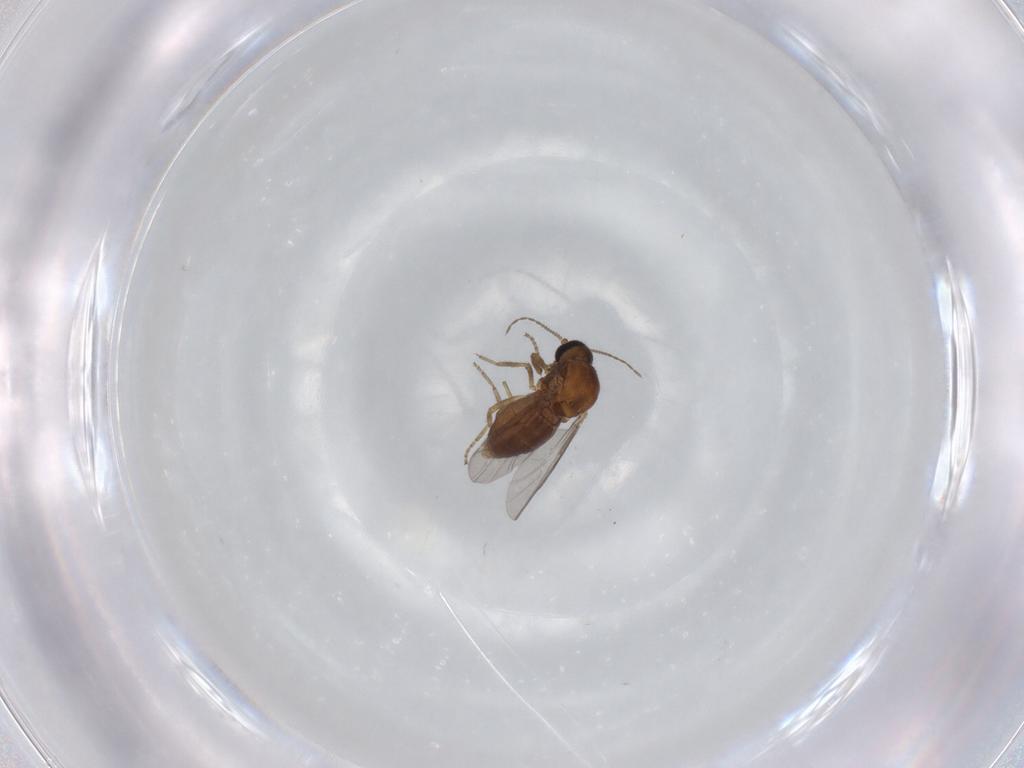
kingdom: Animalia
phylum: Arthropoda
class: Insecta
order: Diptera
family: Ceratopogonidae
